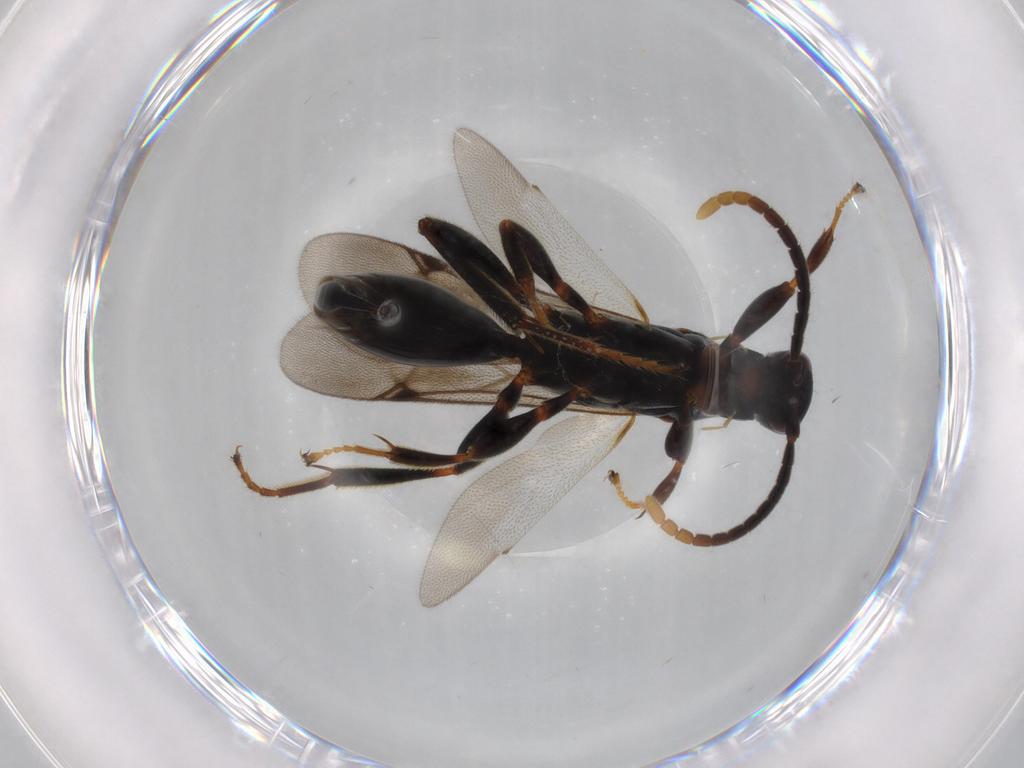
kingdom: Animalia
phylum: Arthropoda
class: Insecta
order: Hymenoptera
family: Proctotrupidae
